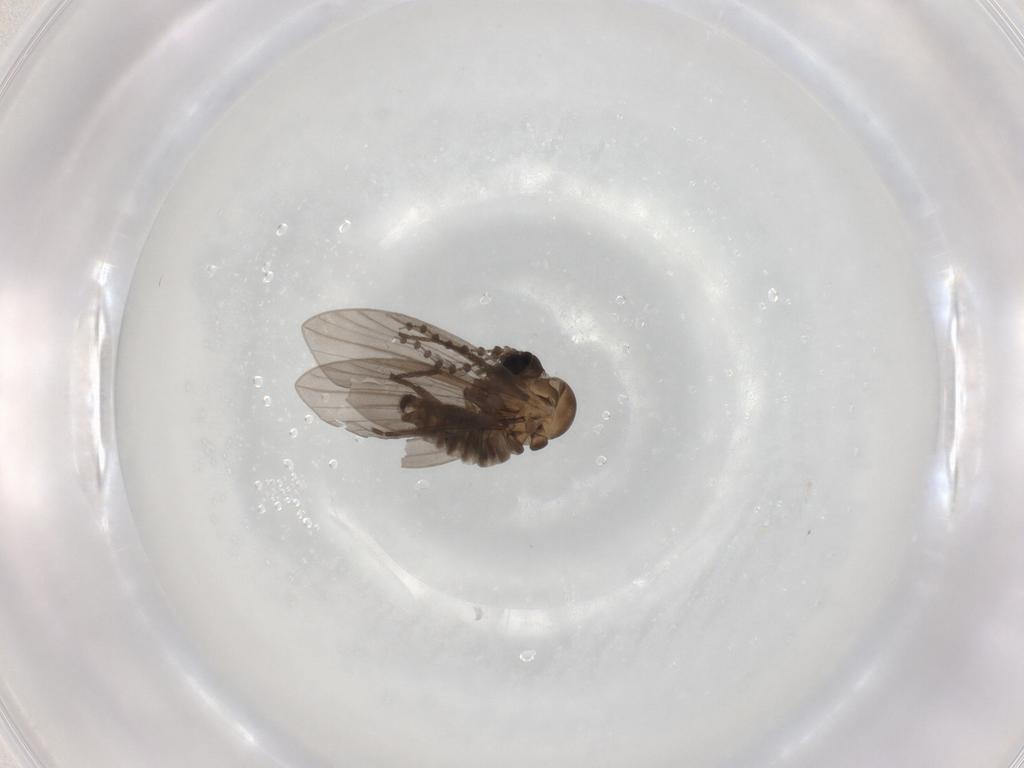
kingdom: Animalia
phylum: Arthropoda
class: Insecta
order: Diptera
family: Psychodidae
